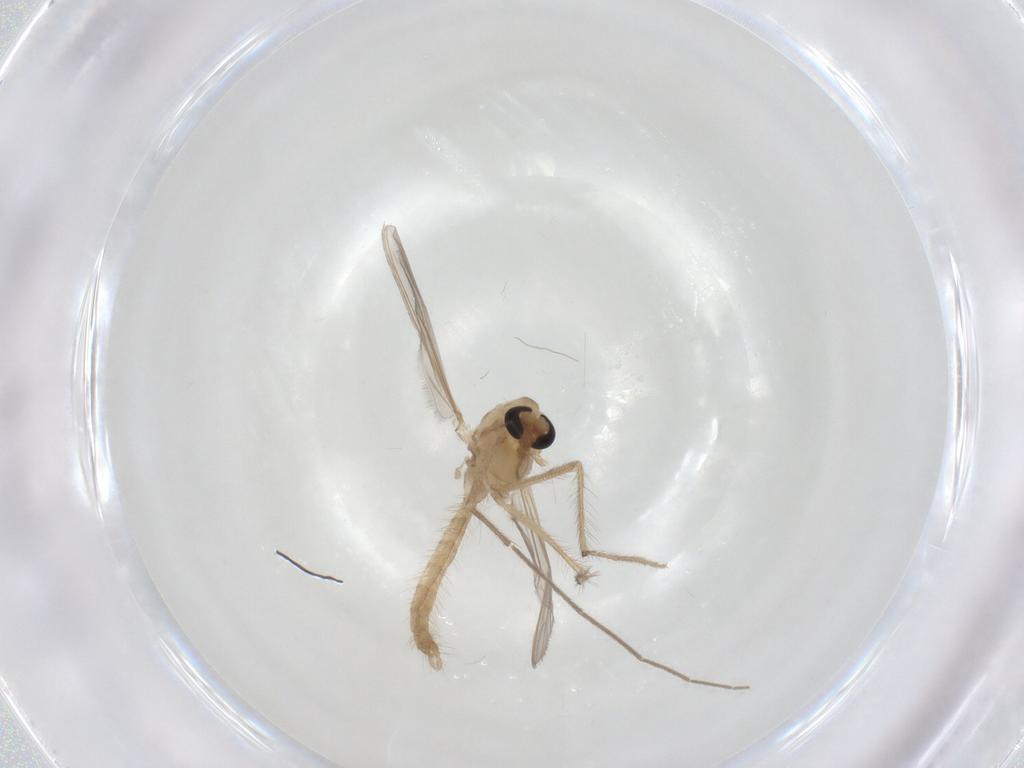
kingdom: Animalia
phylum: Arthropoda
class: Insecta
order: Diptera
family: Chironomidae
